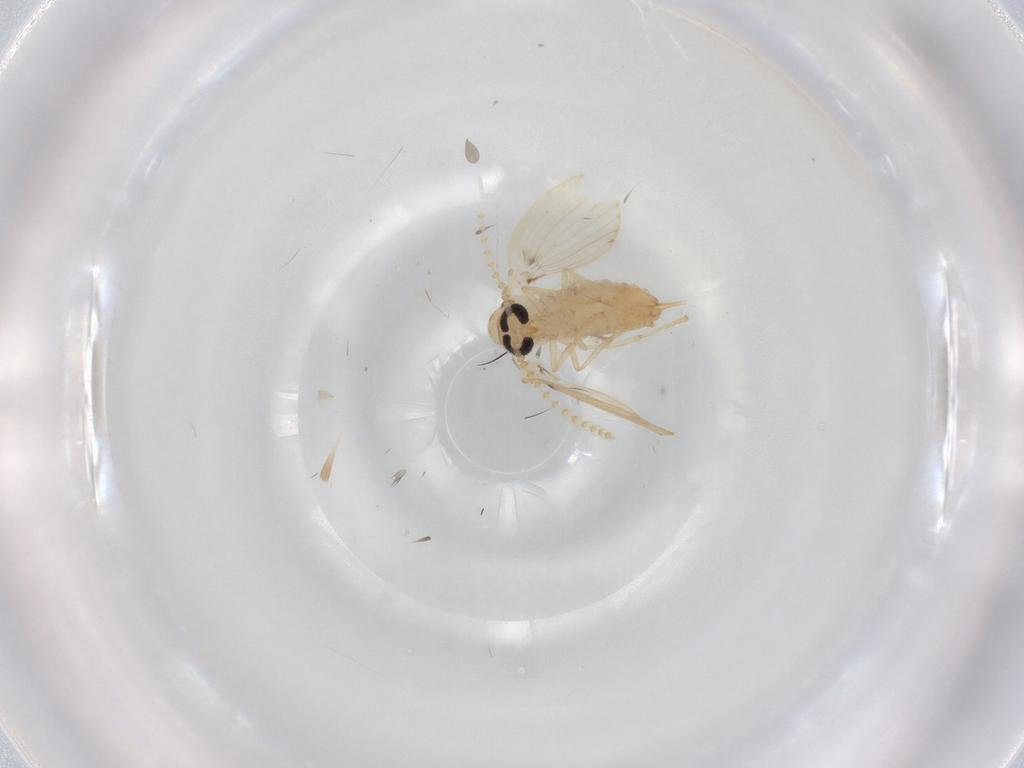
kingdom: Animalia
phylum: Arthropoda
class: Insecta
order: Diptera
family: Psychodidae
